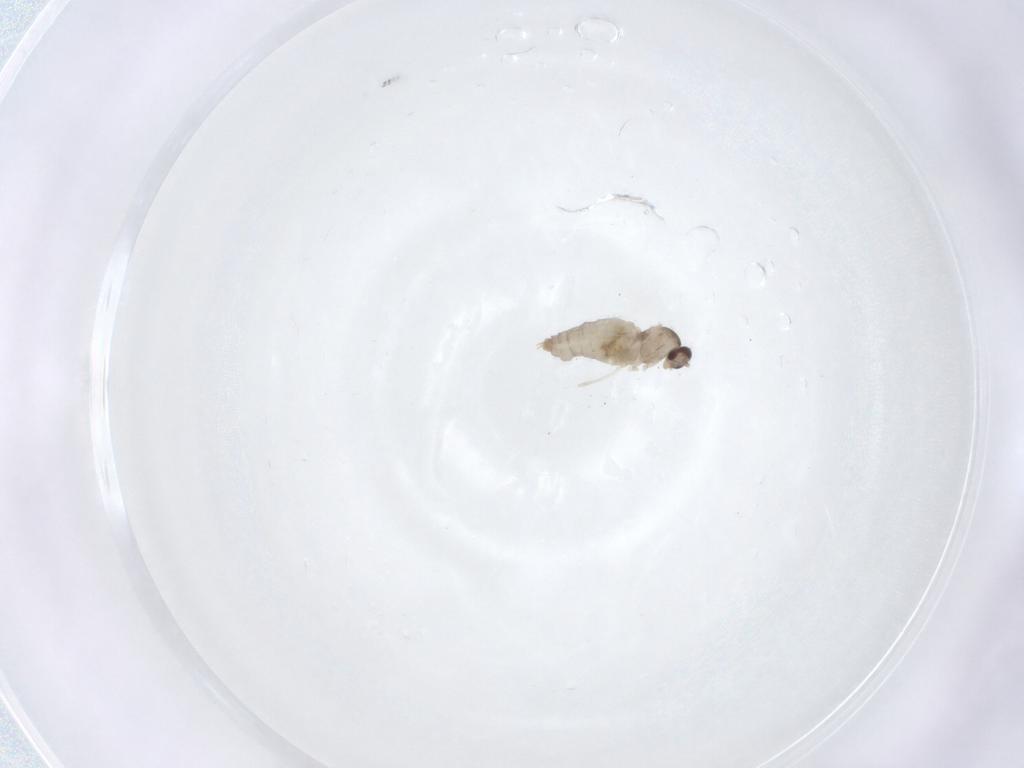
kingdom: Animalia
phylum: Arthropoda
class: Insecta
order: Diptera
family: Cecidomyiidae
